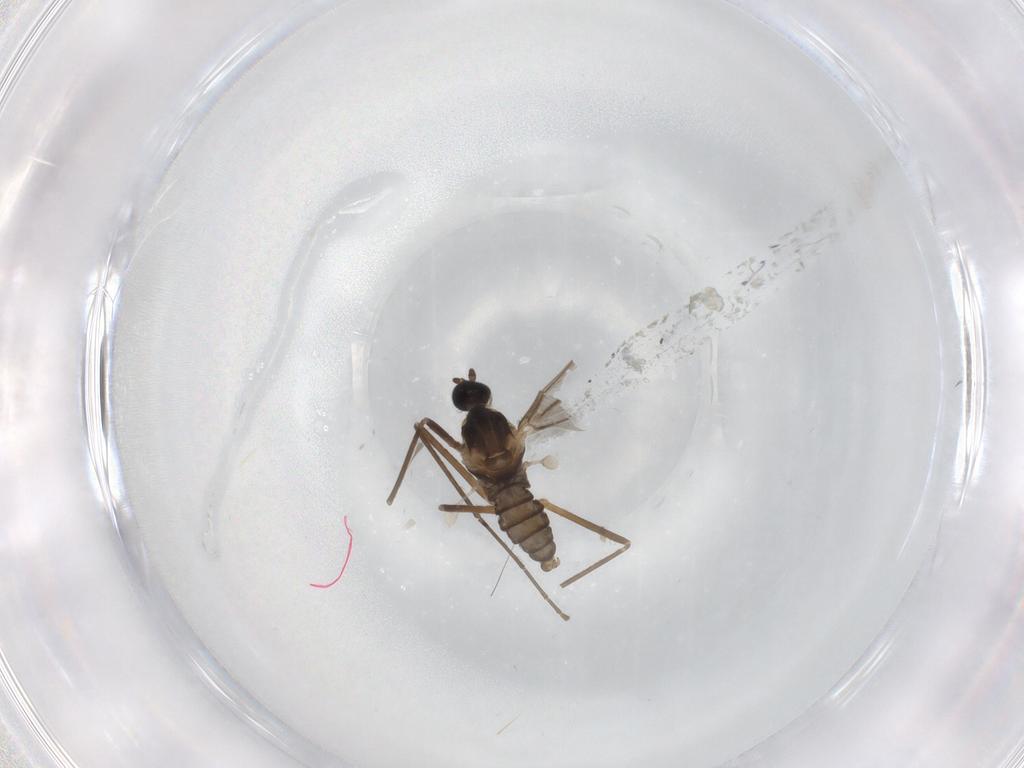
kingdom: Animalia
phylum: Arthropoda
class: Insecta
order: Diptera
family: Cecidomyiidae
